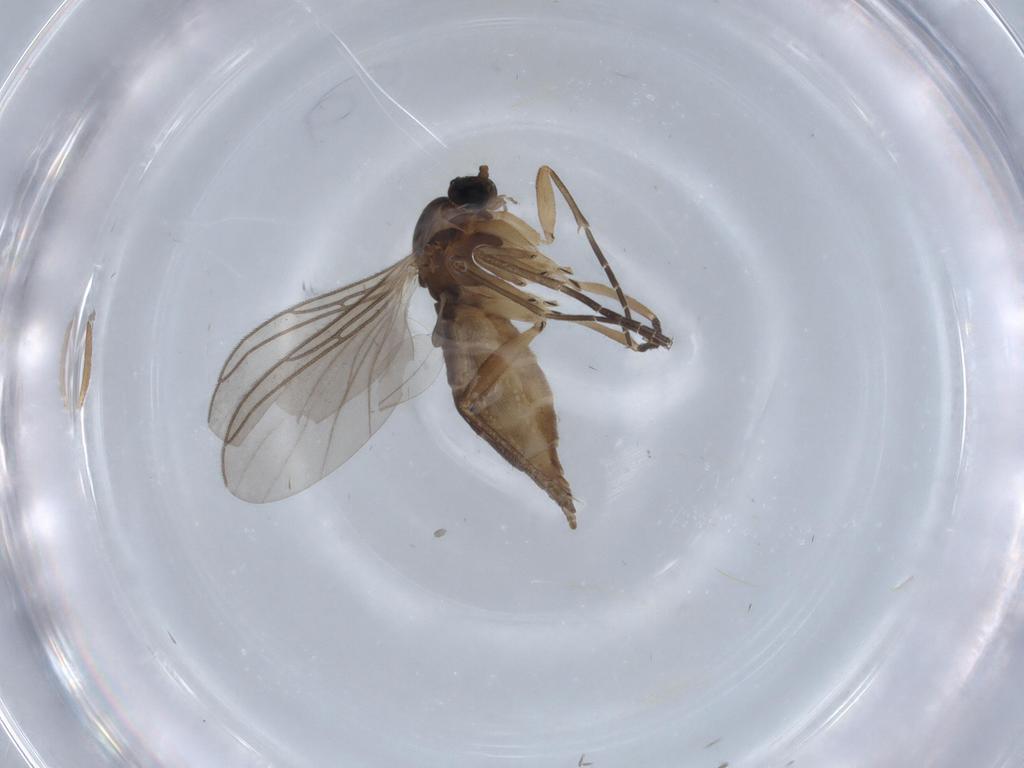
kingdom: Animalia
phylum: Arthropoda
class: Insecta
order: Diptera
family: Sciaridae
